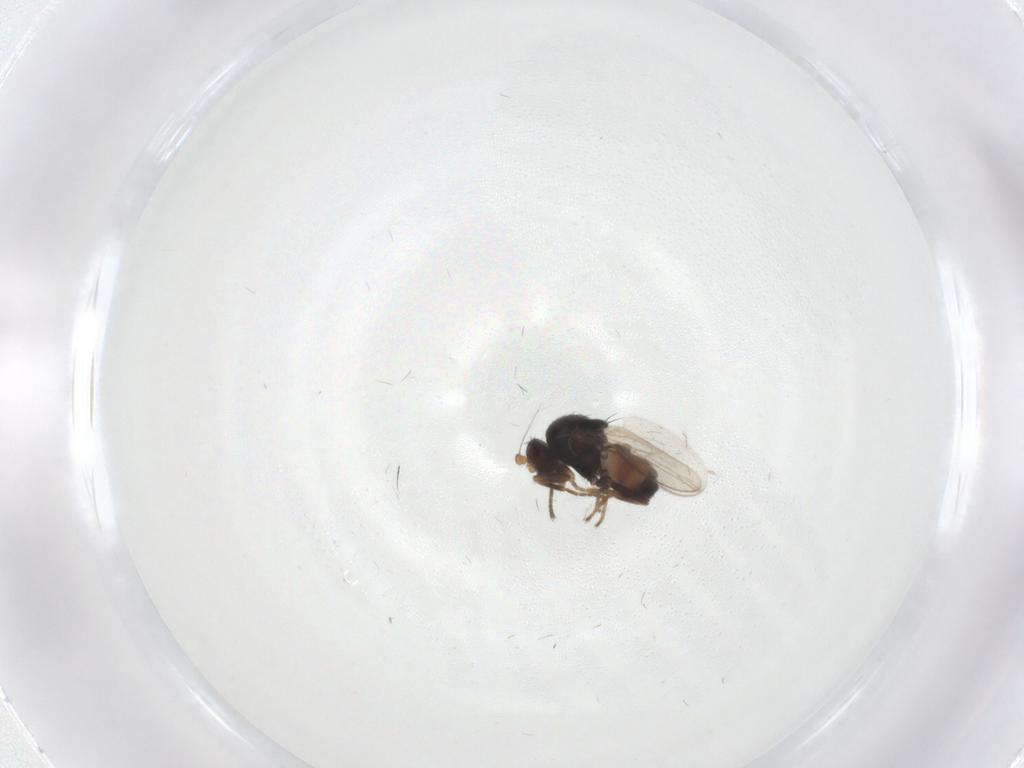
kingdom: Animalia
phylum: Arthropoda
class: Insecta
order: Diptera
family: Sphaeroceridae
